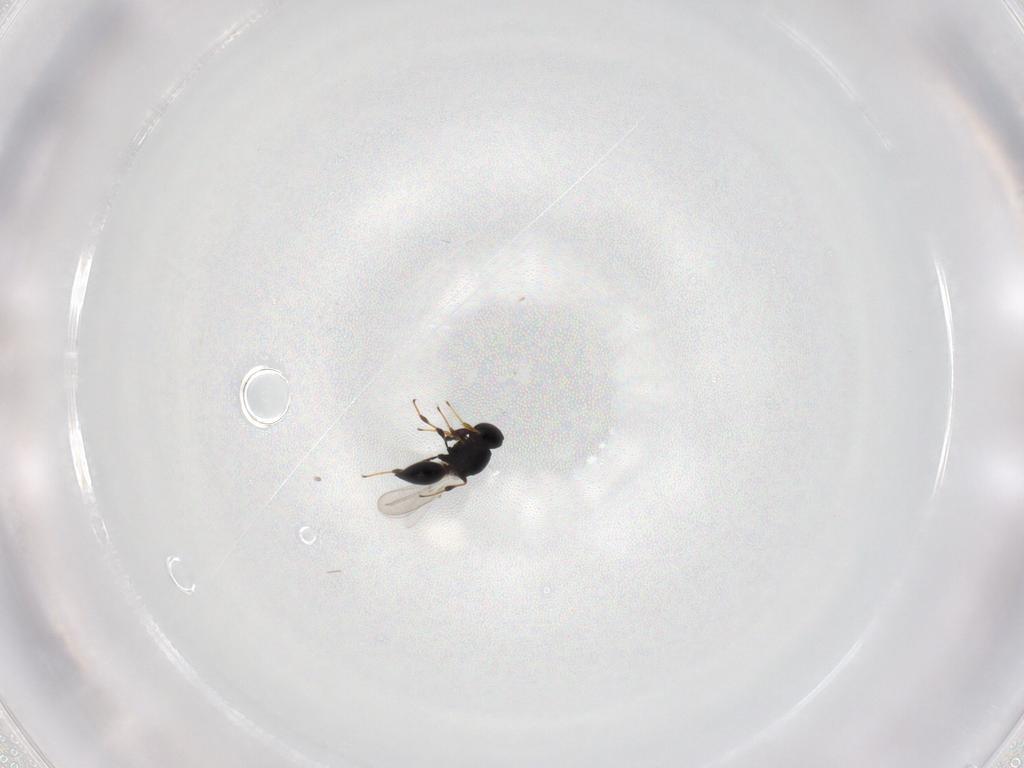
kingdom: Animalia
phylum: Arthropoda
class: Insecta
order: Hymenoptera
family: Platygastridae
